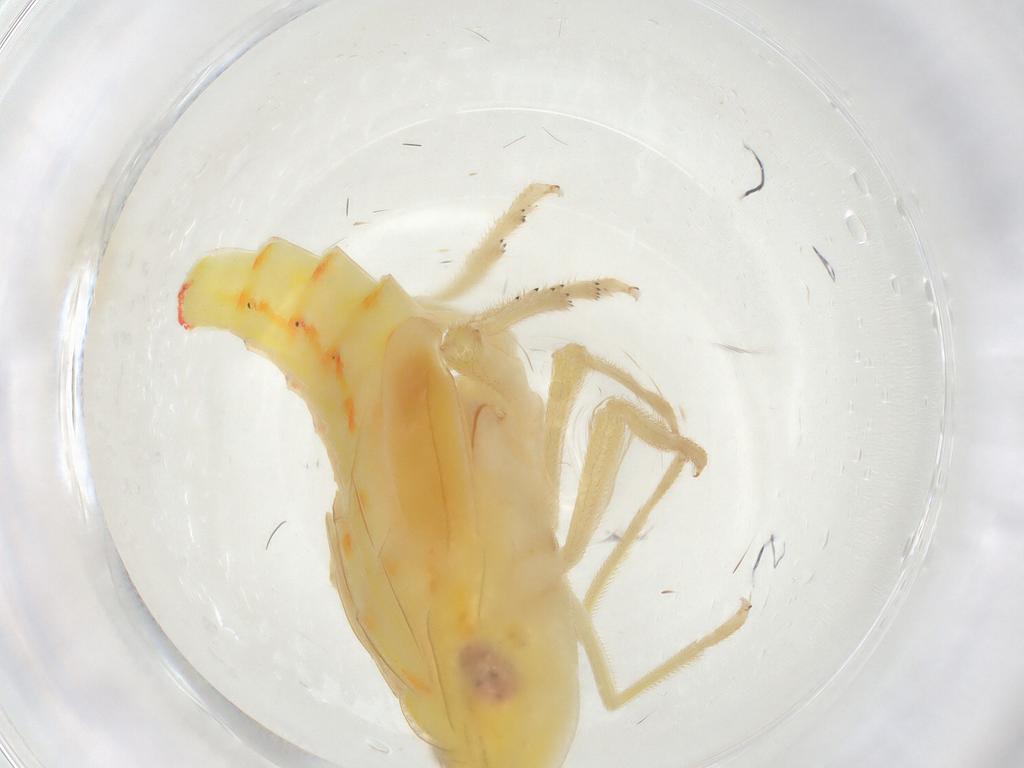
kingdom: Animalia
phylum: Arthropoda
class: Insecta
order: Hemiptera
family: Tropiduchidae
